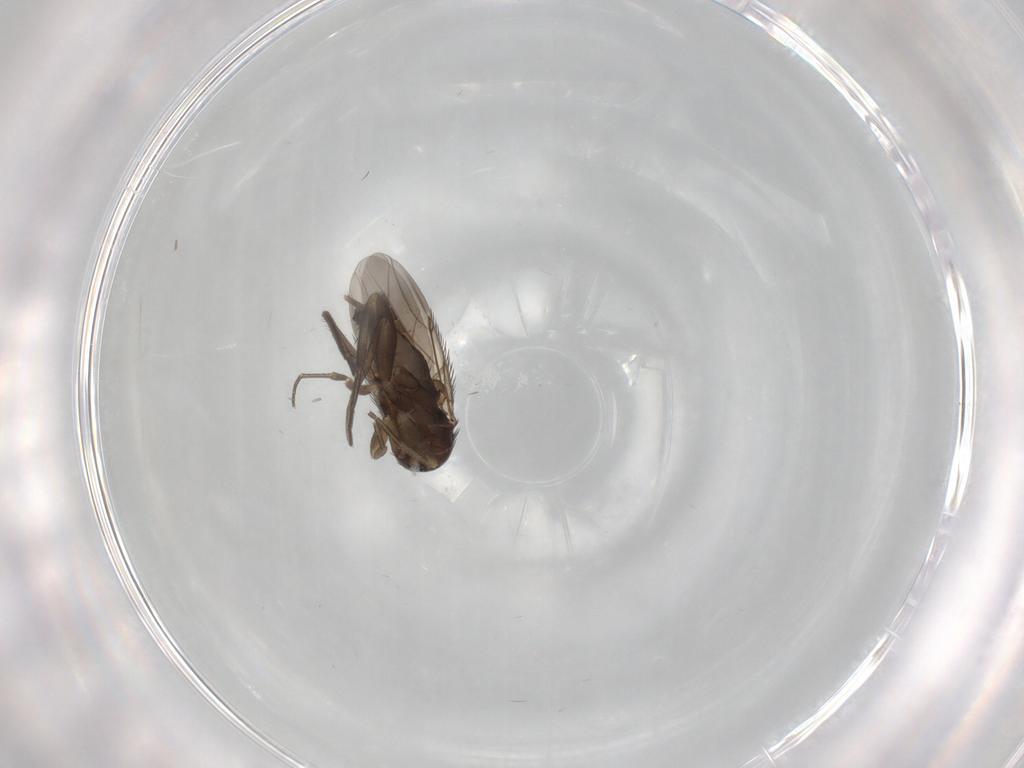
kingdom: Animalia
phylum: Arthropoda
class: Insecta
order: Diptera
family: Phoridae
